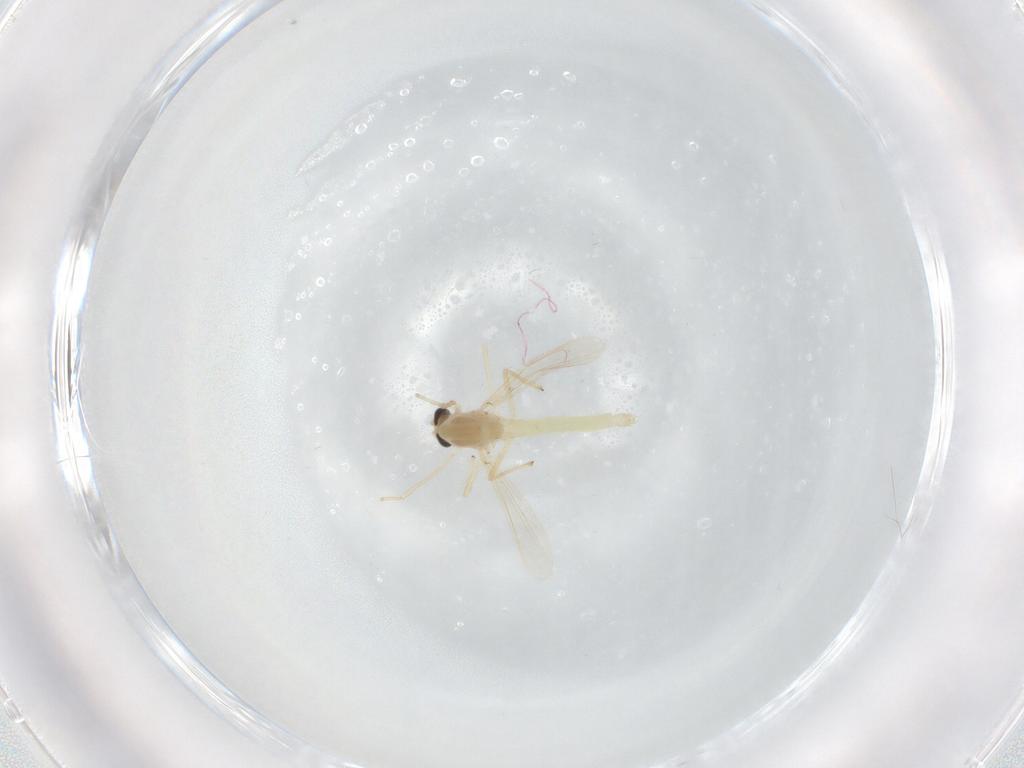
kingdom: Animalia
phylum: Arthropoda
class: Insecta
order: Diptera
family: Chironomidae
